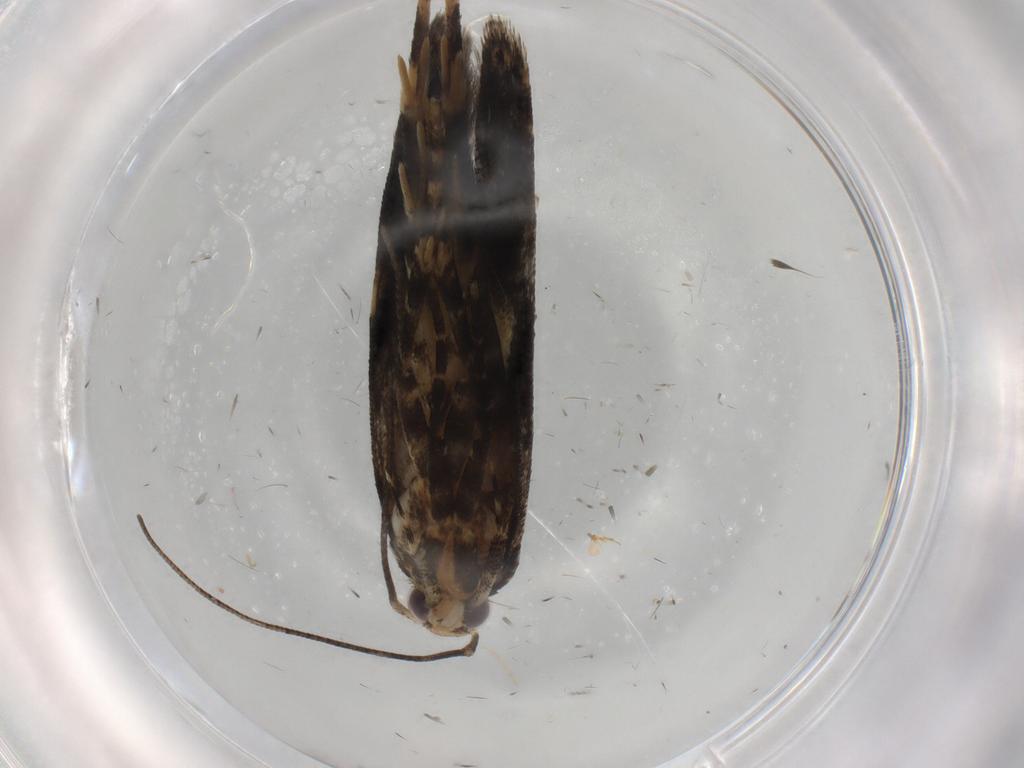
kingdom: Animalia
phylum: Arthropoda
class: Insecta
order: Lepidoptera
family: Gelechiidae
